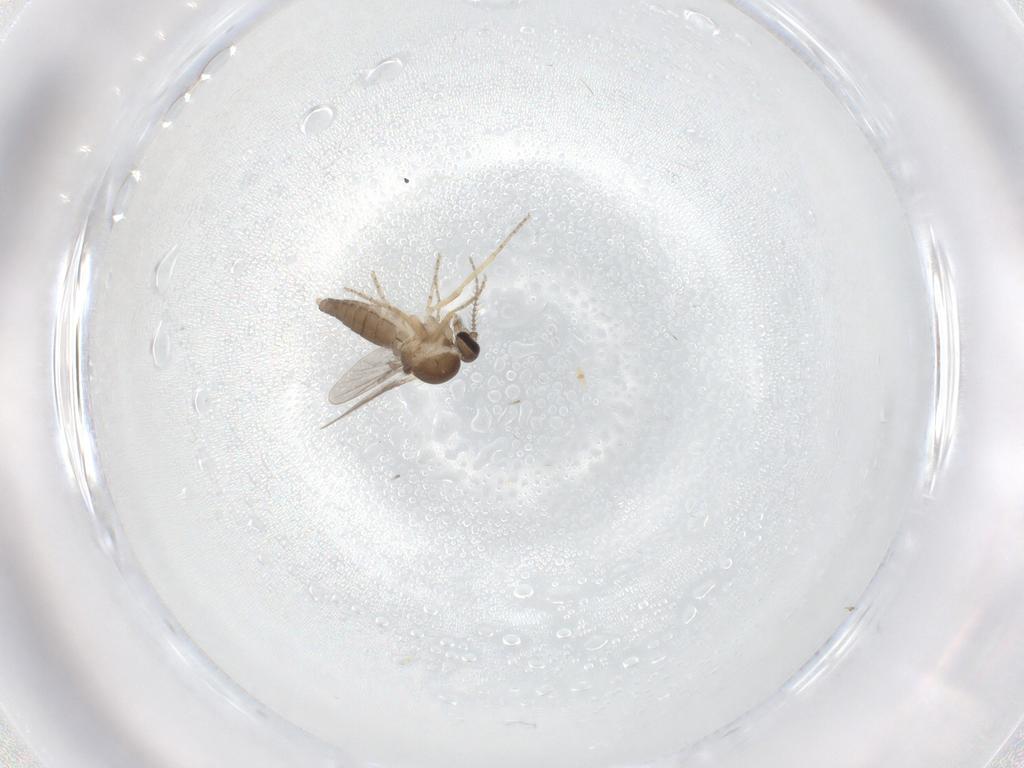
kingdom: Animalia
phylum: Arthropoda
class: Insecta
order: Diptera
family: Ceratopogonidae
